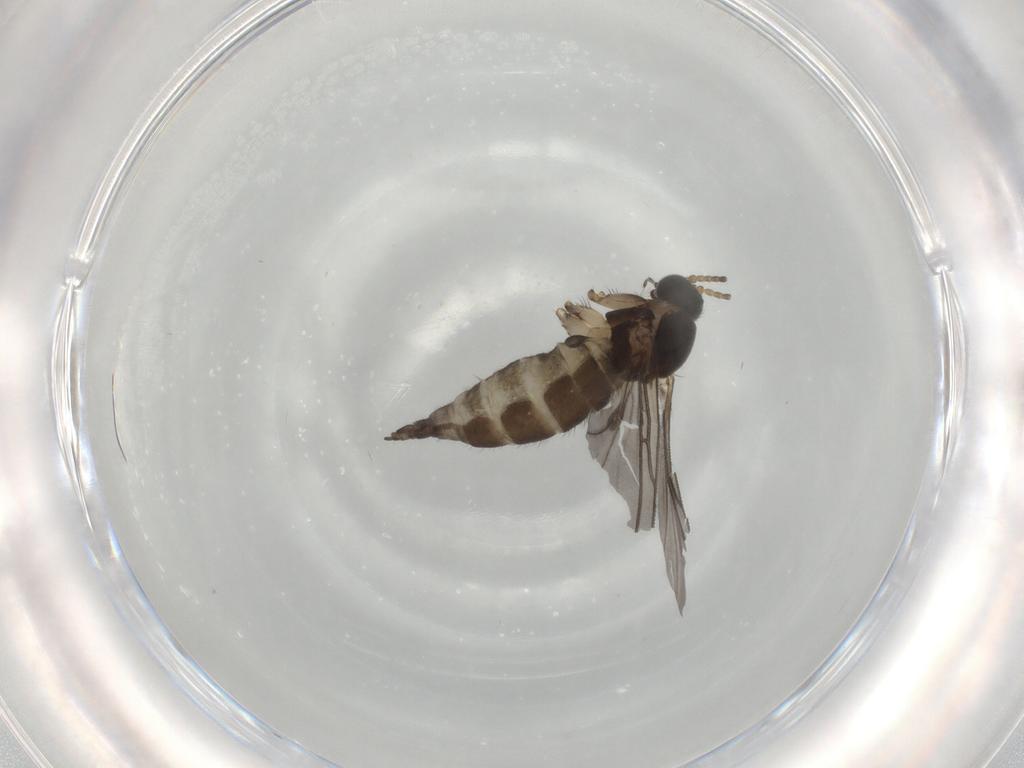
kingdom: Animalia
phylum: Arthropoda
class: Insecta
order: Diptera
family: Sciaridae
